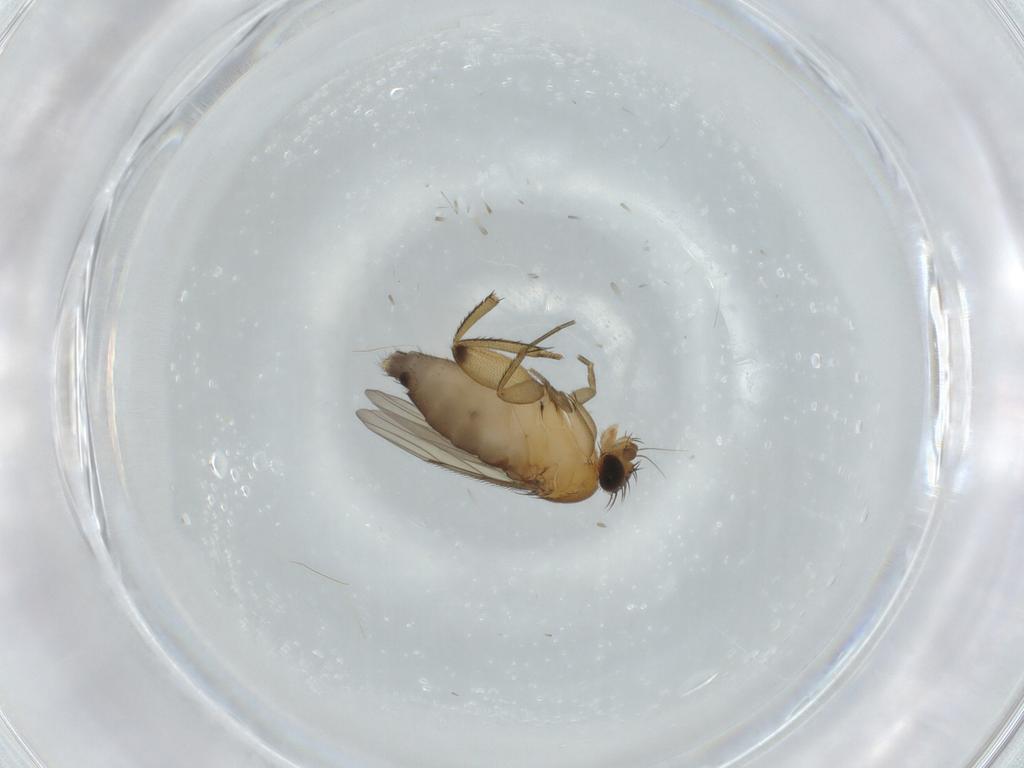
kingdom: Animalia
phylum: Arthropoda
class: Insecta
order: Diptera
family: Phoridae
